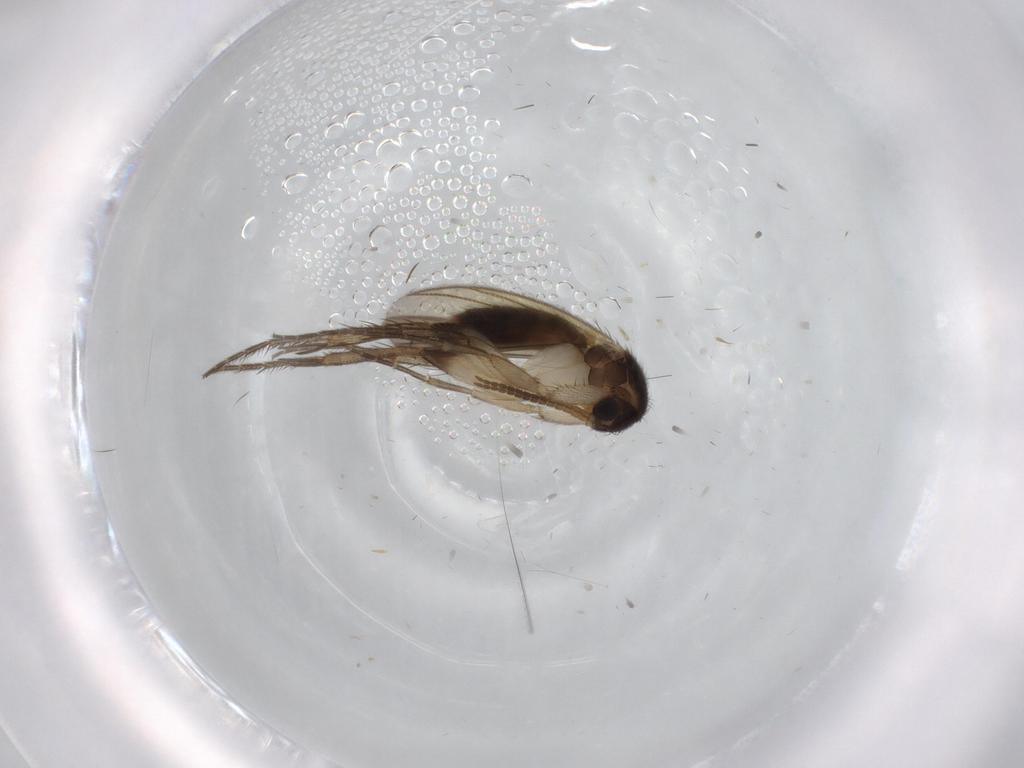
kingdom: Animalia
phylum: Arthropoda
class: Insecta
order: Diptera
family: Mycetophilidae
